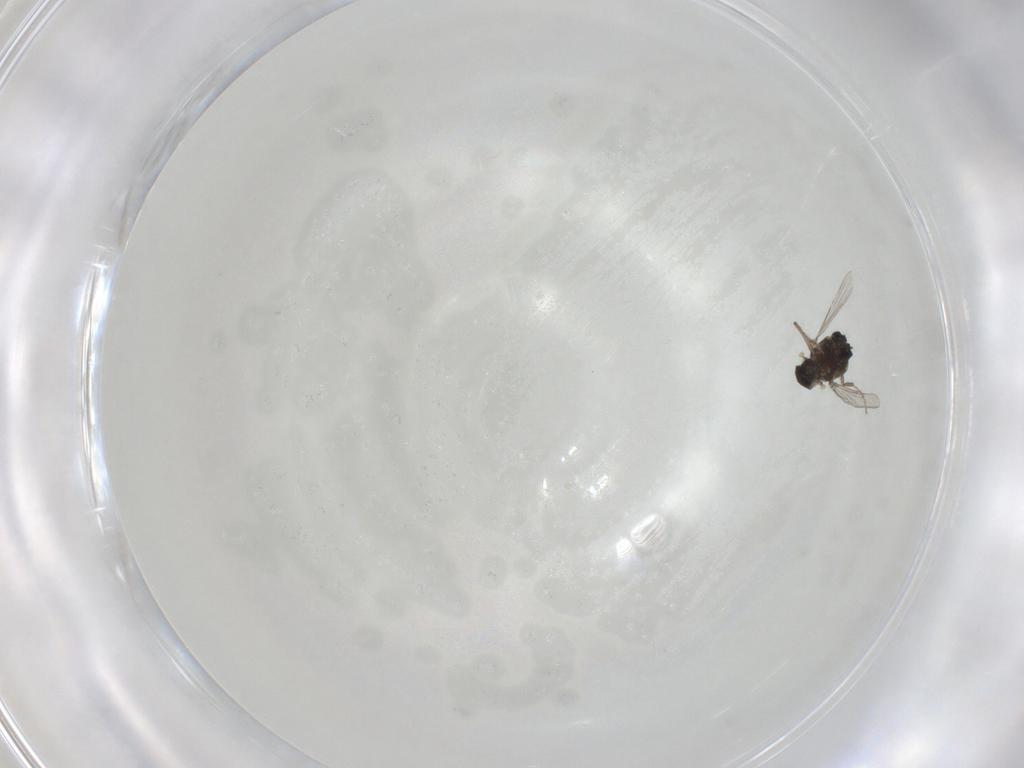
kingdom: Animalia
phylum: Arthropoda
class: Insecta
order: Diptera
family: Ceratopogonidae
